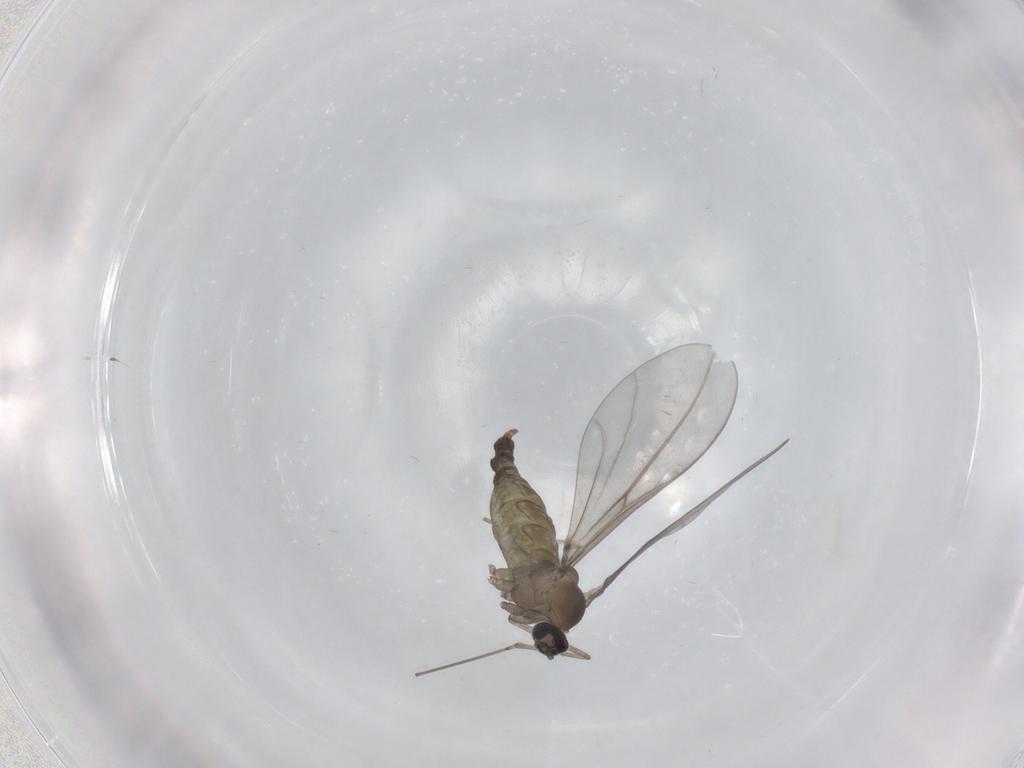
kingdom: Animalia
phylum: Arthropoda
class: Insecta
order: Diptera
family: Cecidomyiidae
